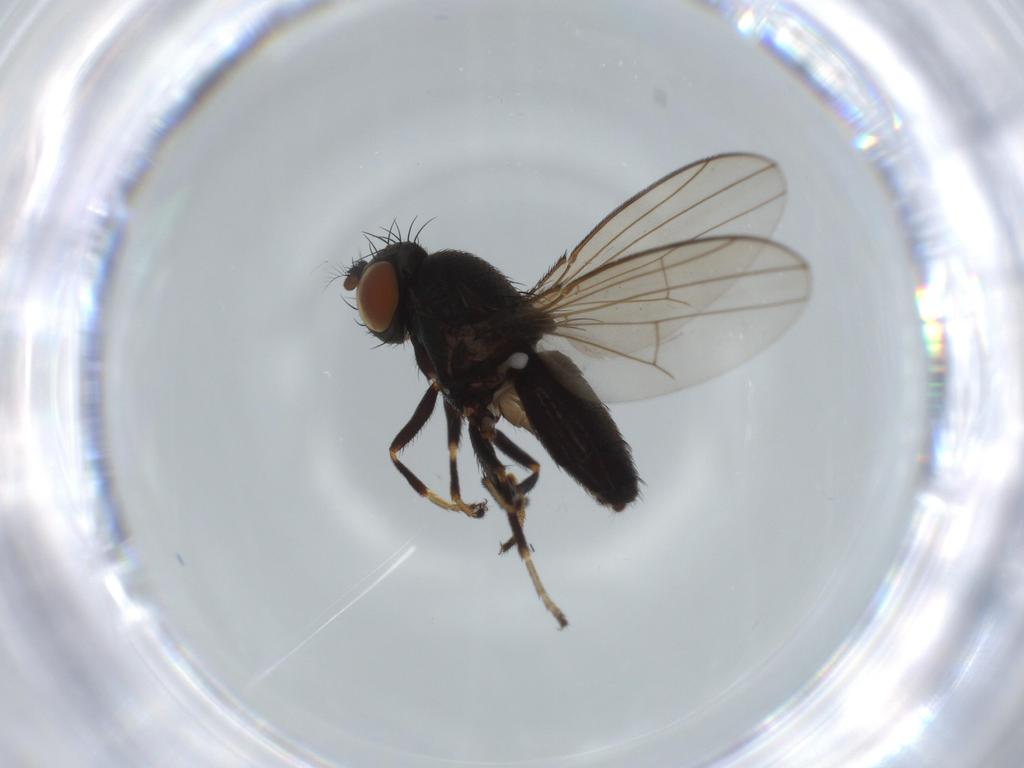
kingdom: Animalia
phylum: Arthropoda
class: Insecta
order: Diptera
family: Ephydridae
